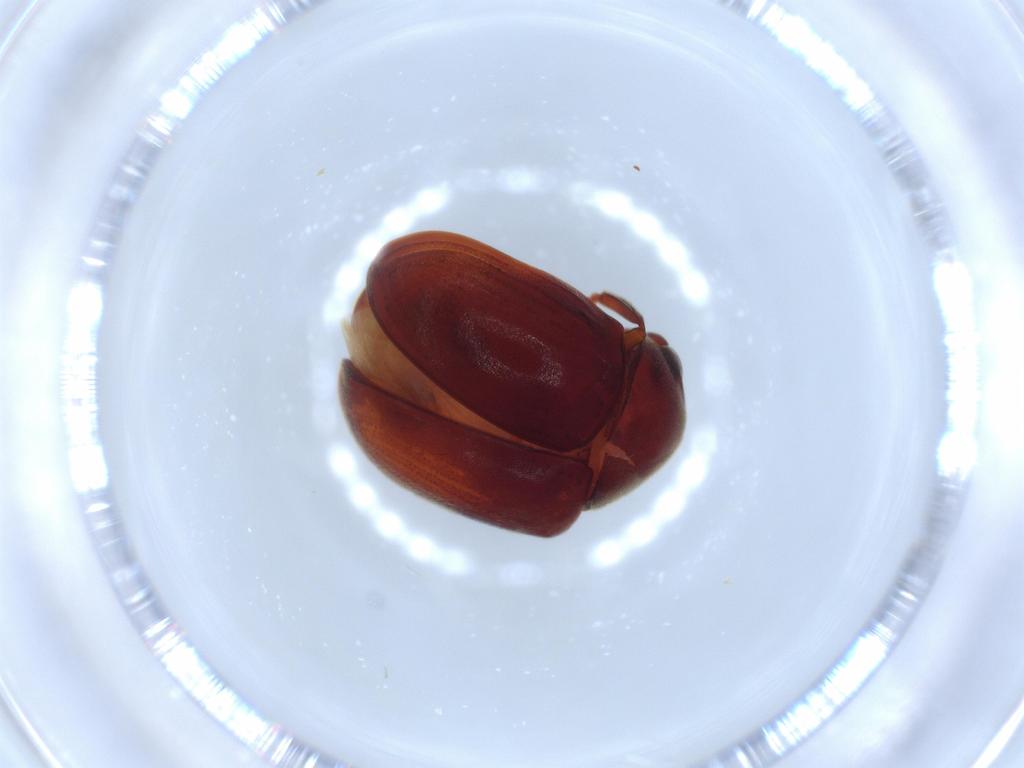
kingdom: Animalia
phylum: Arthropoda
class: Insecta
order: Coleoptera
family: Ptinidae
